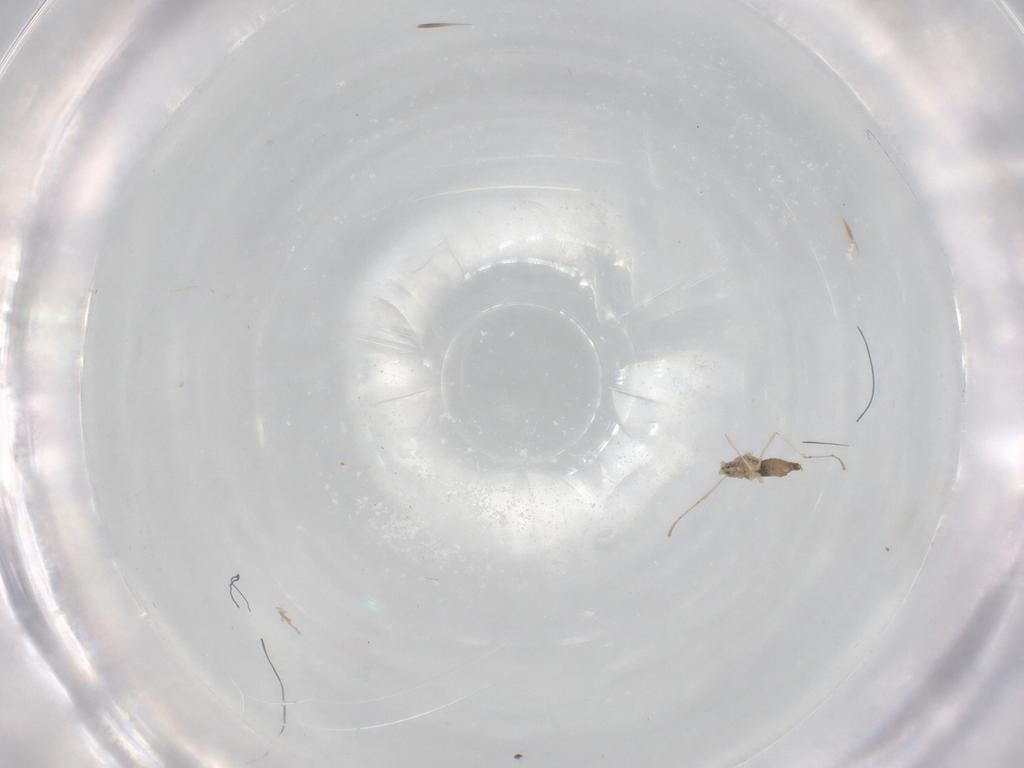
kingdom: Animalia
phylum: Arthropoda
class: Insecta
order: Diptera
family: Cecidomyiidae
